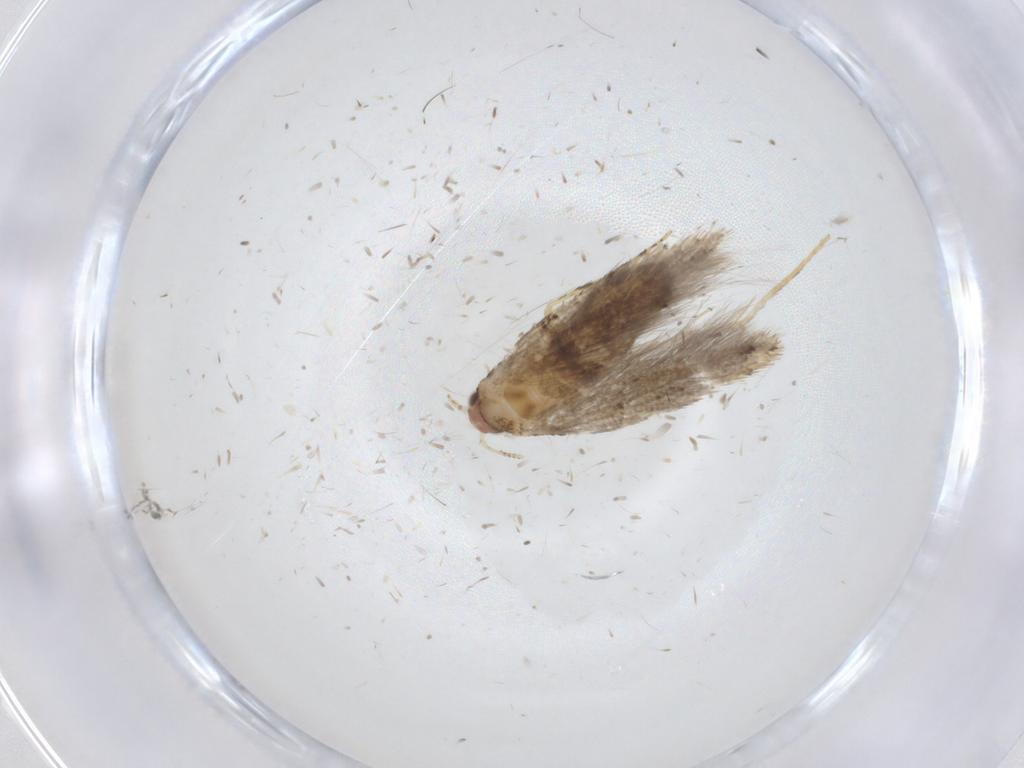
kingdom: Animalia
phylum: Arthropoda
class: Insecta
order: Lepidoptera
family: Tineidae
